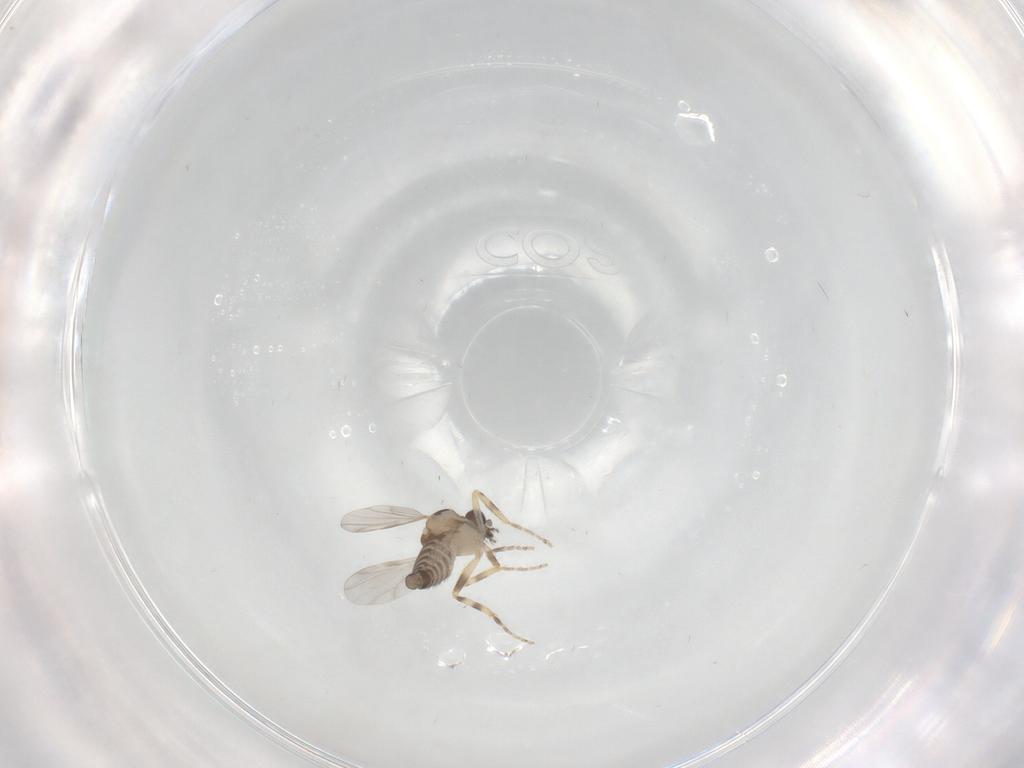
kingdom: Animalia
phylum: Arthropoda
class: Insecta
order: Diptera
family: Ceratopogonidae
